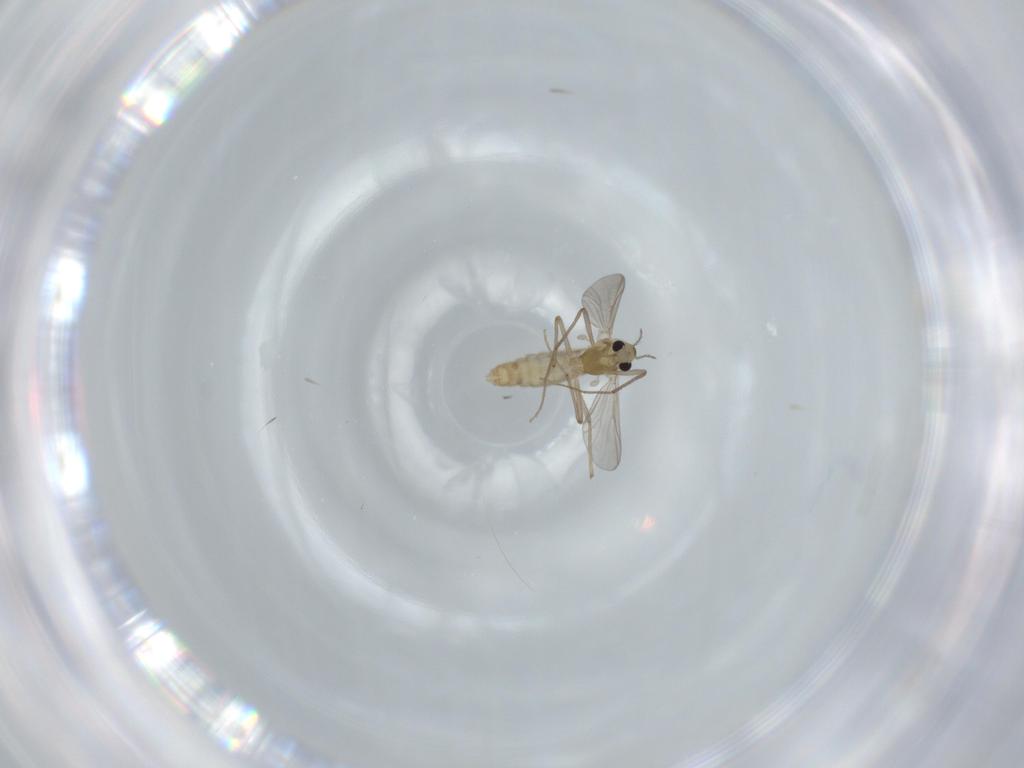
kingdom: Animalia
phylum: Arthropoda
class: Insecta
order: Diptera
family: Chironomidae
